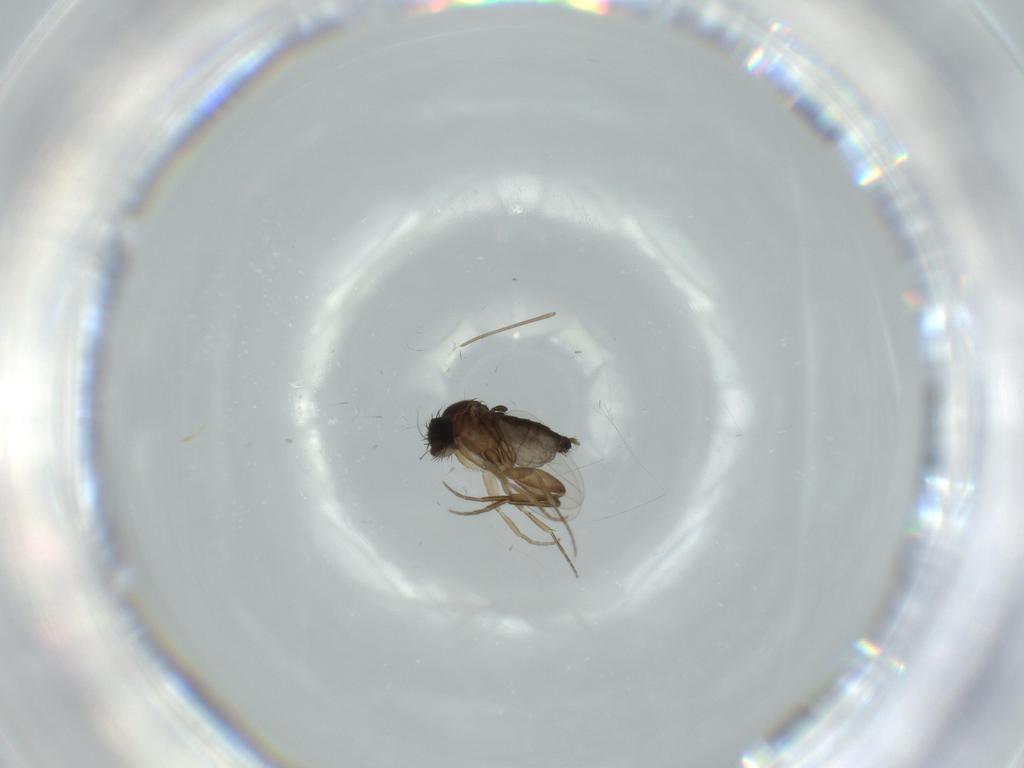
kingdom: Animalia
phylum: Arthropoda
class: Insecta
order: Diptera
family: Phoridae
